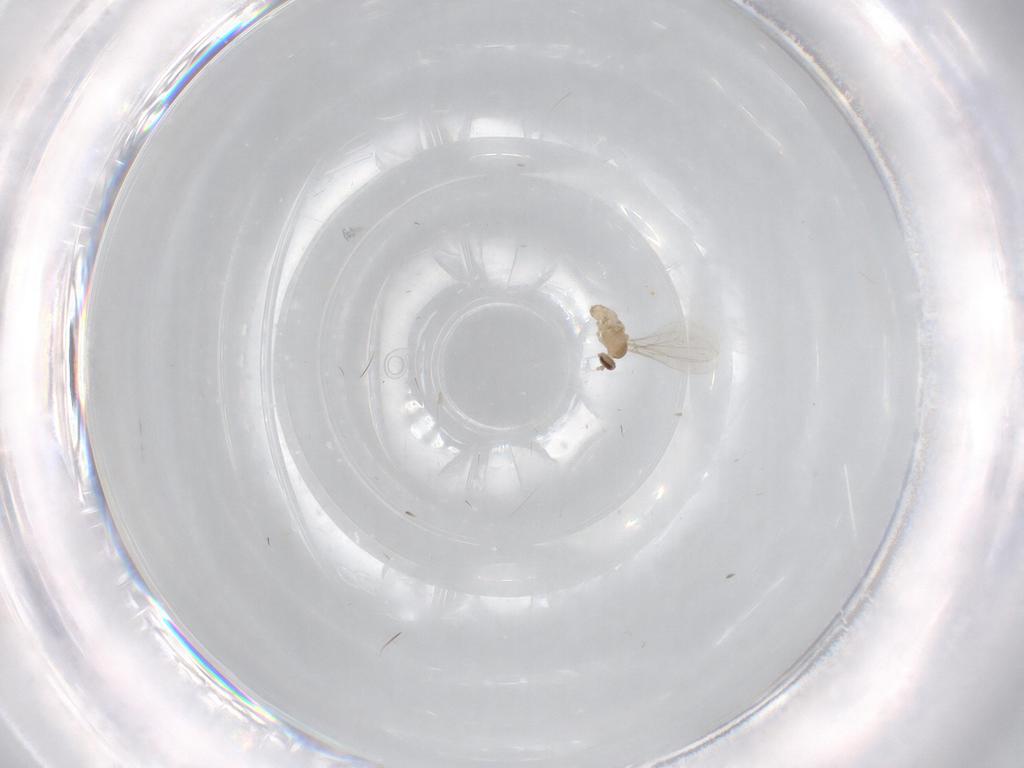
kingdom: Animalia
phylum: Arthropoda
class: Insecta
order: Diptera
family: Cecidomyiidae
